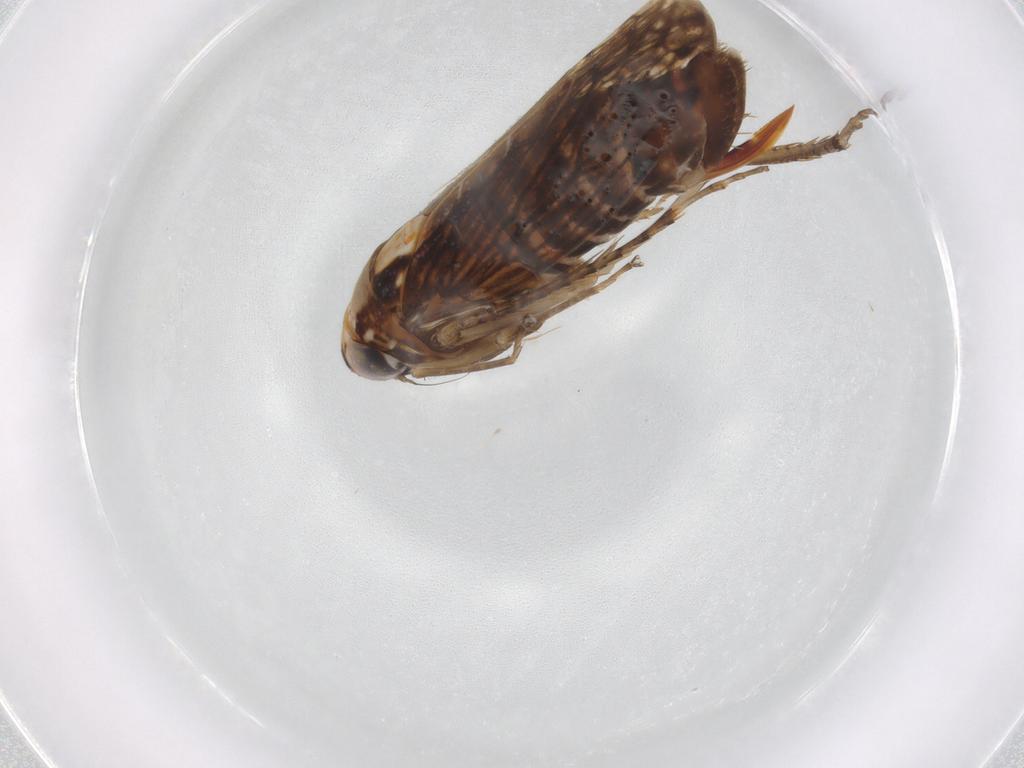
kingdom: Animalia
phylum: Arthropoda
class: Insecta
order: Hemiptera
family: Cicadellidae
